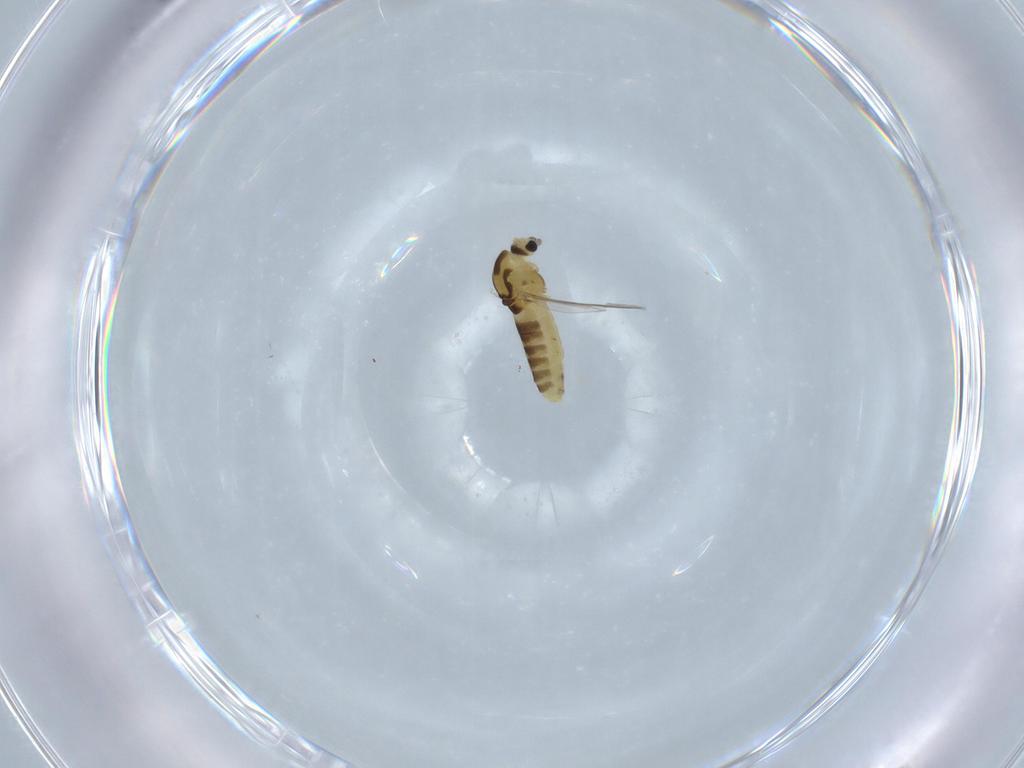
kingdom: Animalia
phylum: Arthropoda
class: Insecta
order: Diptera
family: Chironomidae
